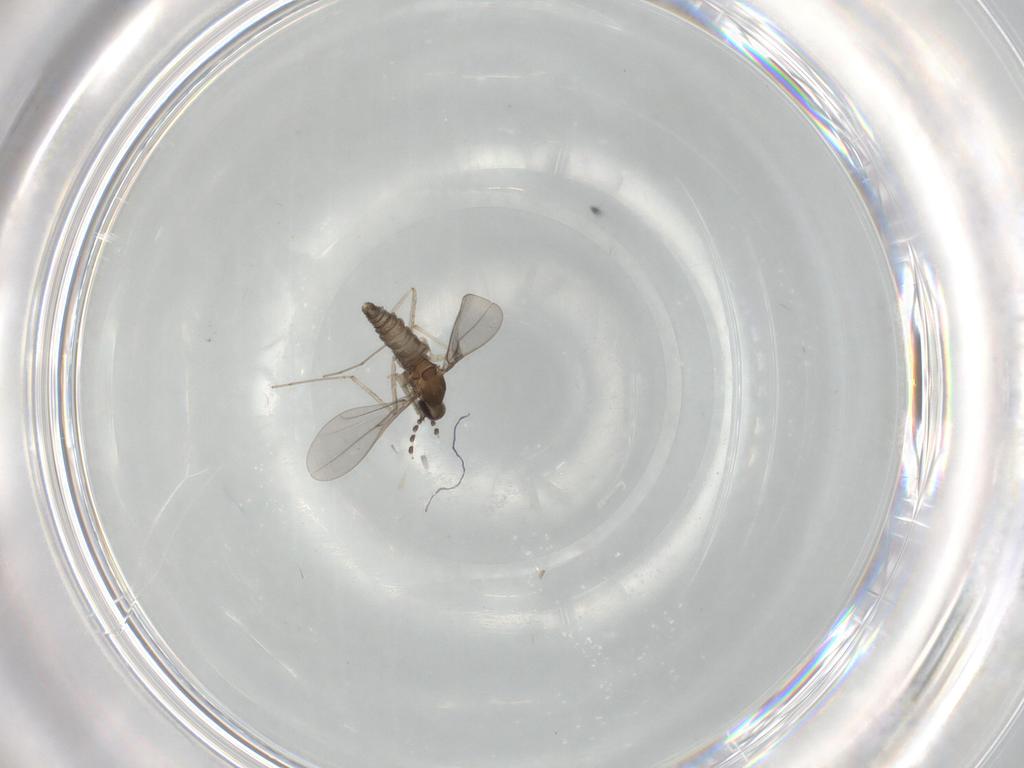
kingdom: Animalia
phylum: Arthropoda
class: Insecta
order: Diptera
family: Cecidomyiidae
